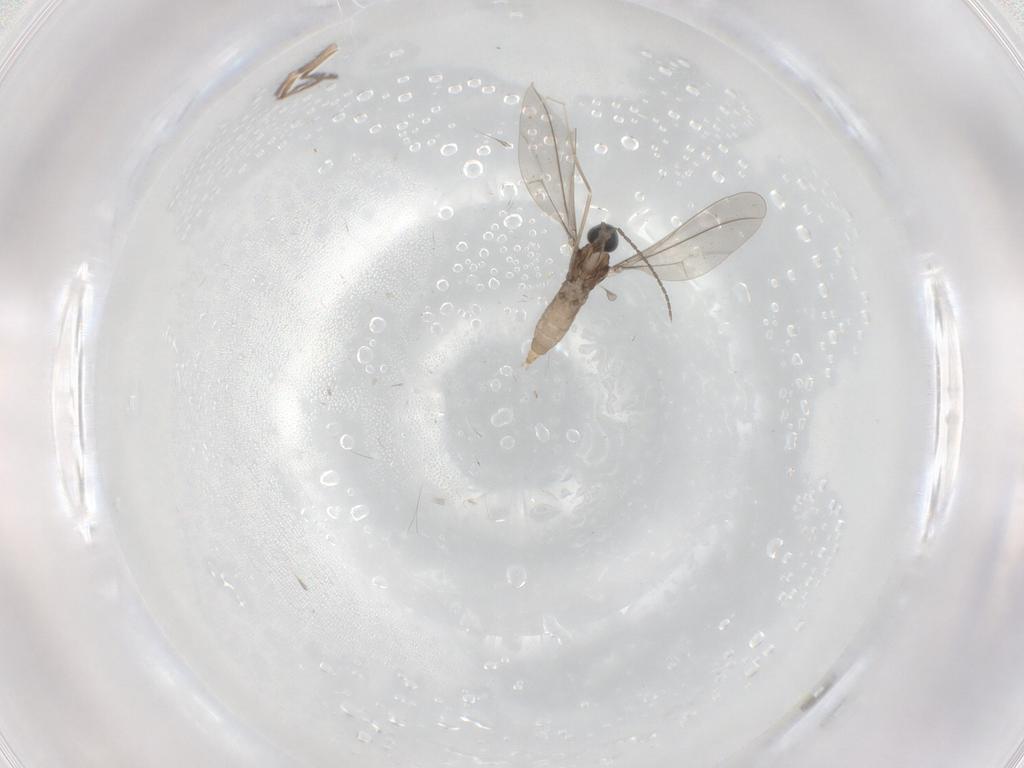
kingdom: Animalia
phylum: Arthropoda
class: Insecta
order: Diptera
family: Cecidomyiidae
